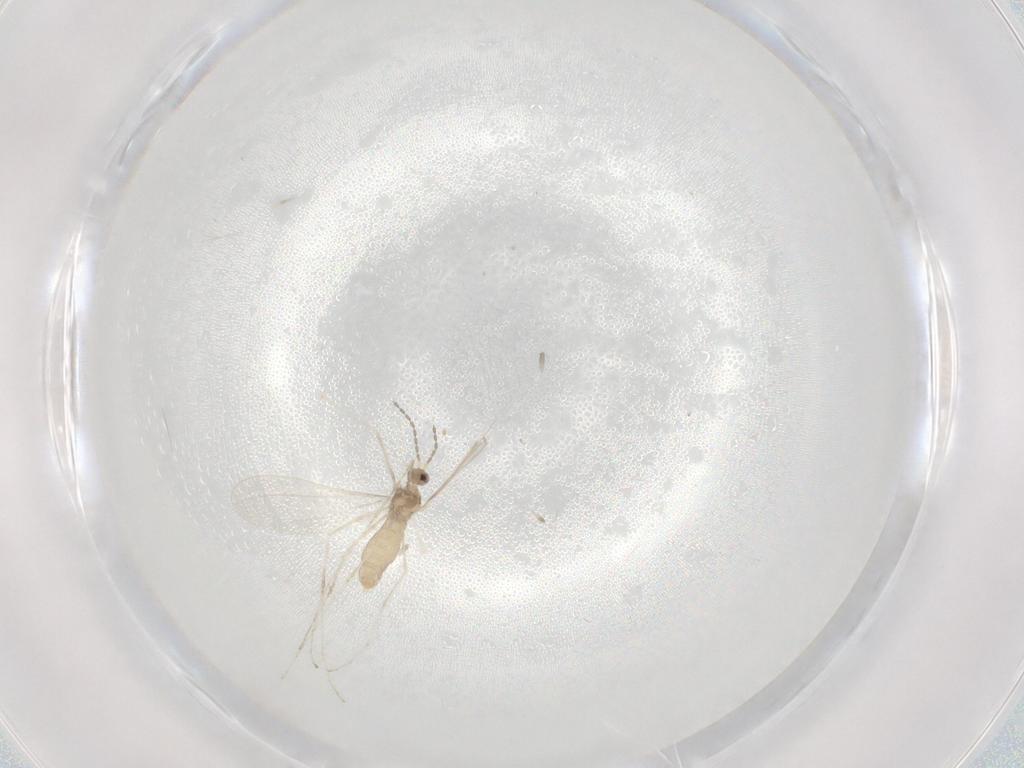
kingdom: Animalia
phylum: Arthropoda
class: Insecta
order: Diptera
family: Cecidomyiidae
